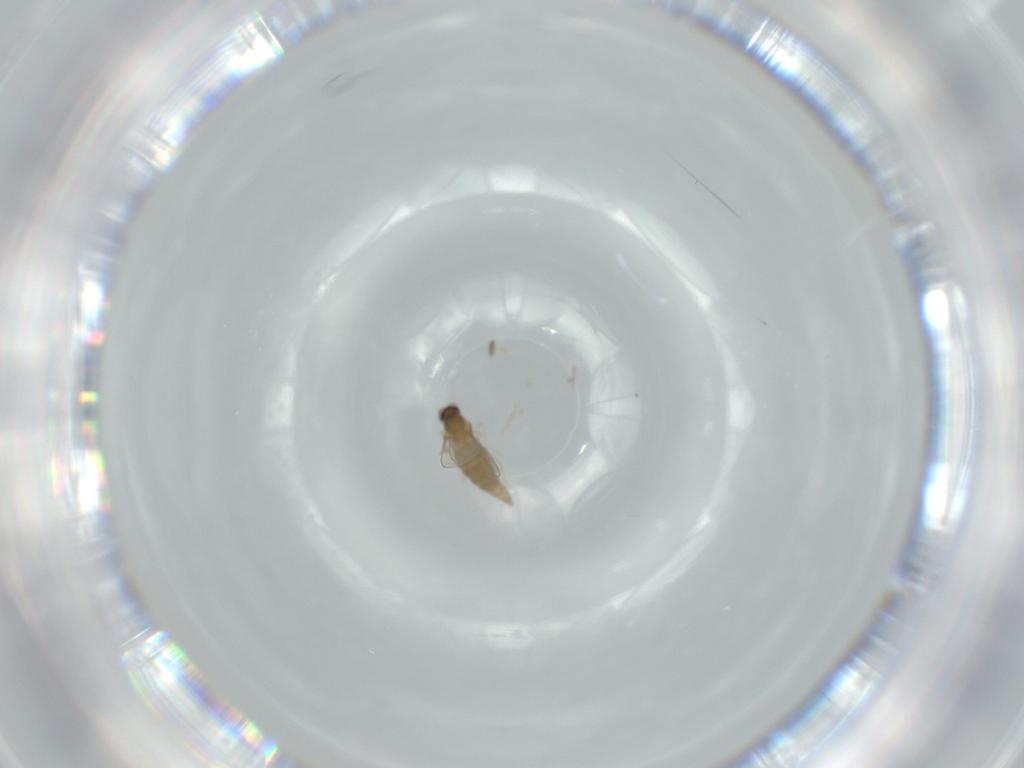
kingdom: Animalia
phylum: Arthropoda
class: Insecta
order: Diptera
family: Cecidomyiidae
